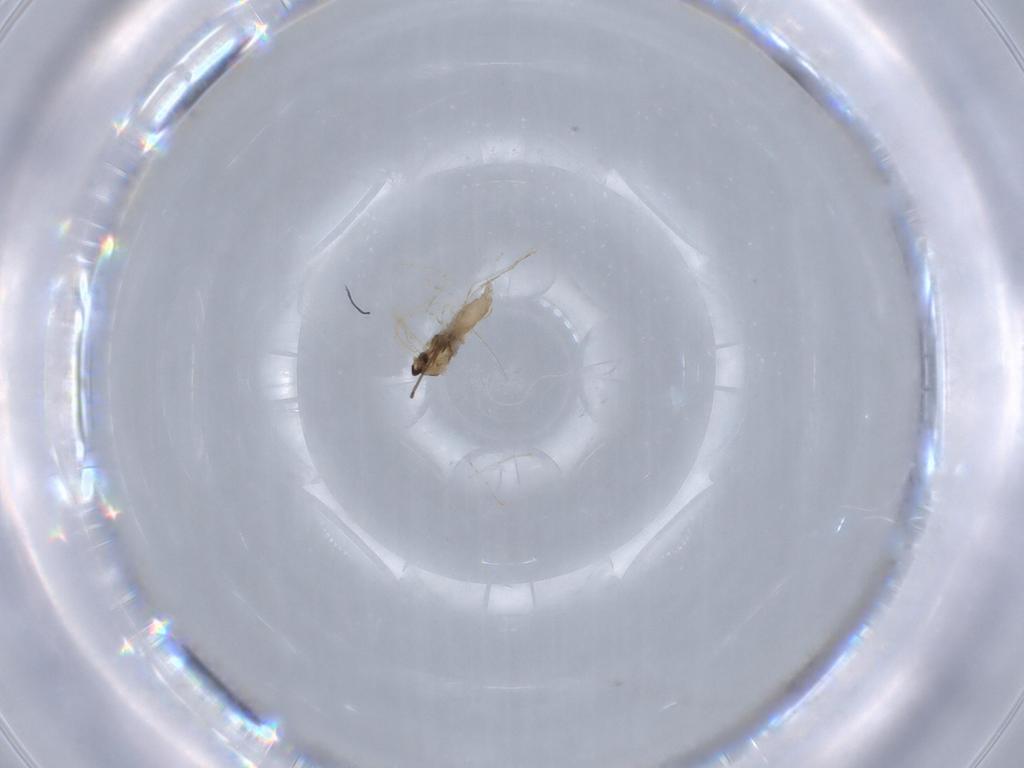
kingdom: Animalia
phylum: Arthropoda
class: Insecta
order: Diptera
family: Cecidomyiidae
